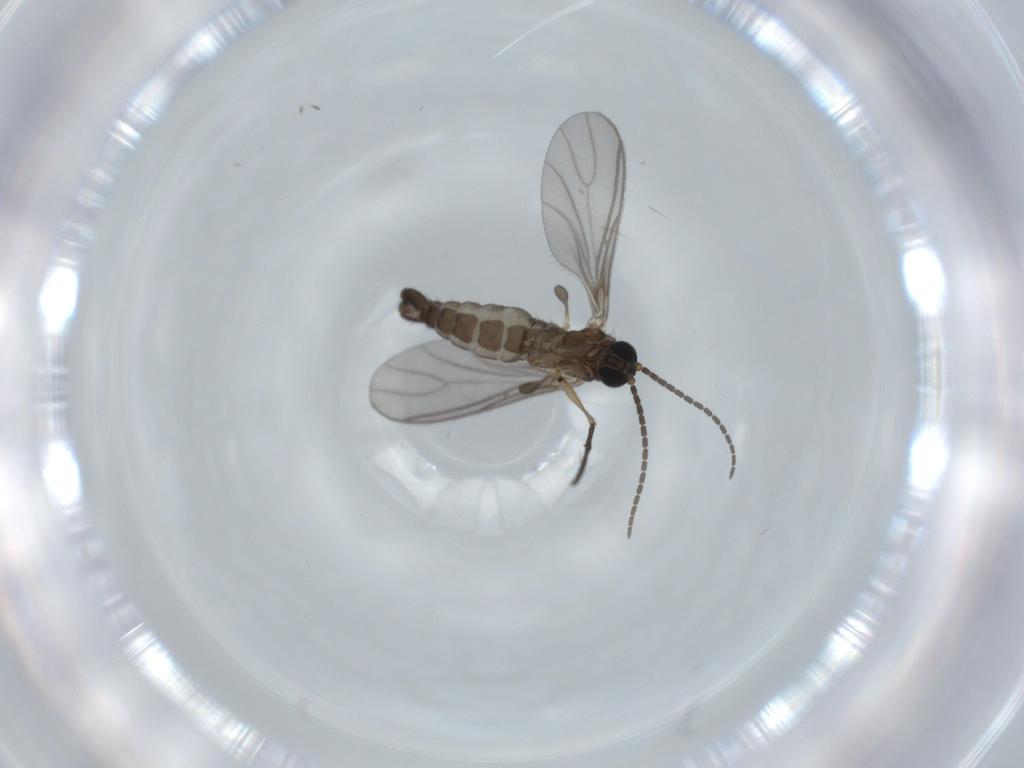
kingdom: Animalia
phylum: Arthropoda
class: Insecta
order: Diptera
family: Sciaridae
